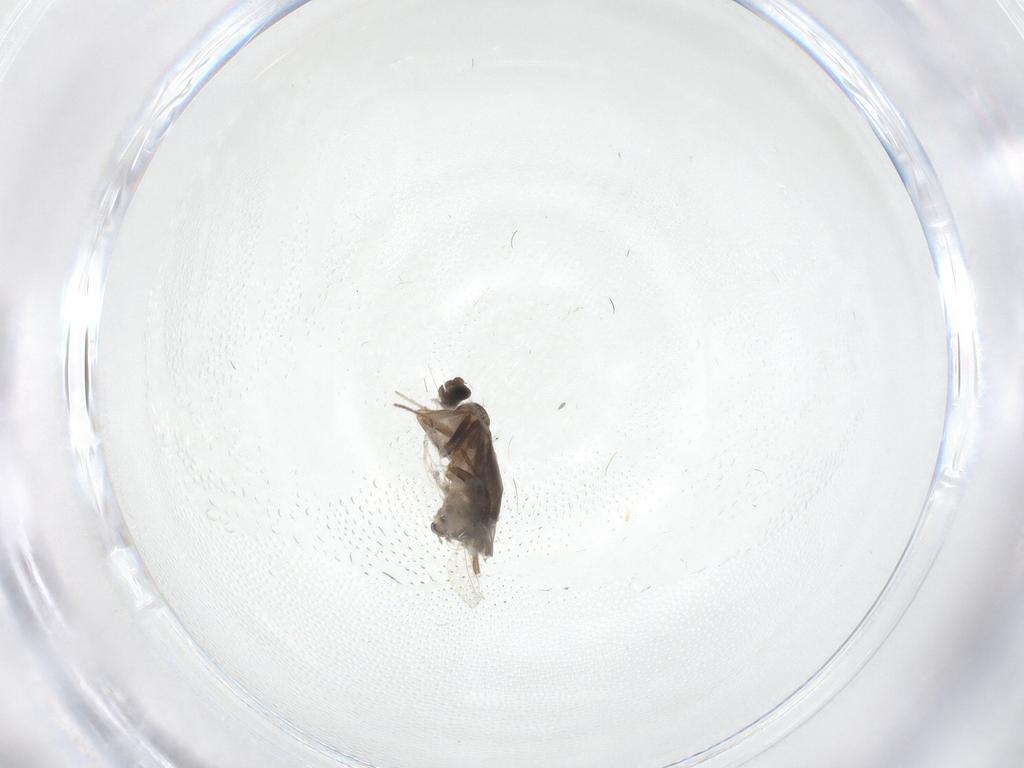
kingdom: Animalia
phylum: Arthropoda
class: Insecta
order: Diptera
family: Cecidomyiidae
